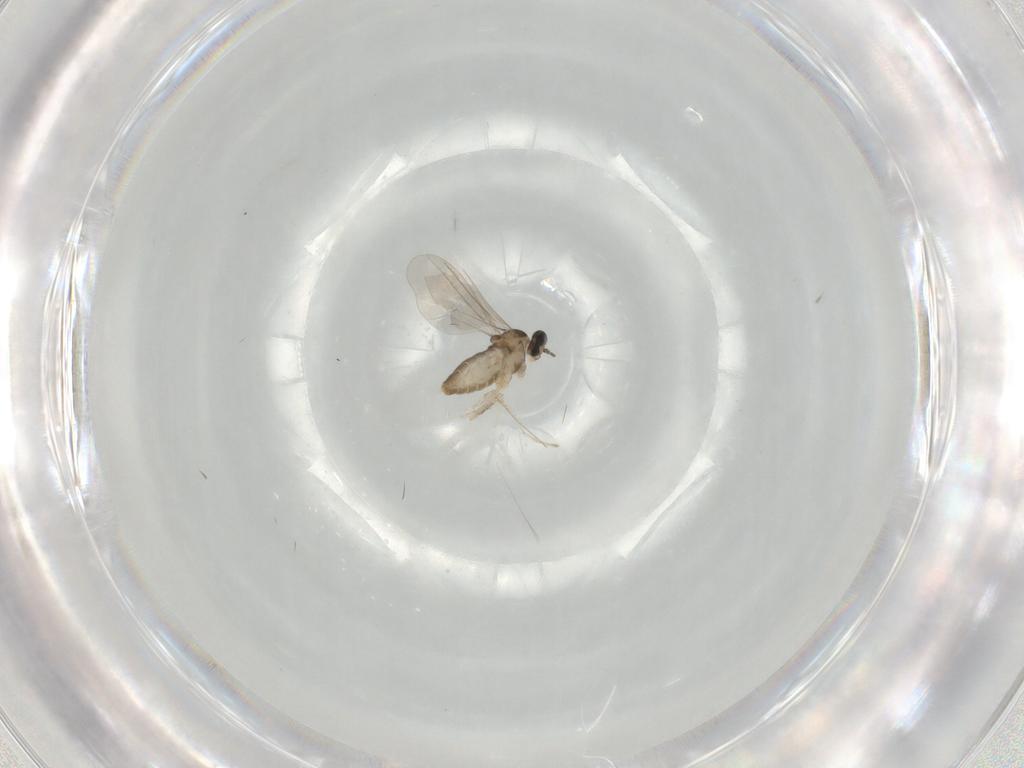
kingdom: Animalia
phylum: Arthropoda
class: Insecta
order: Diptera
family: Cecidomyiidae
